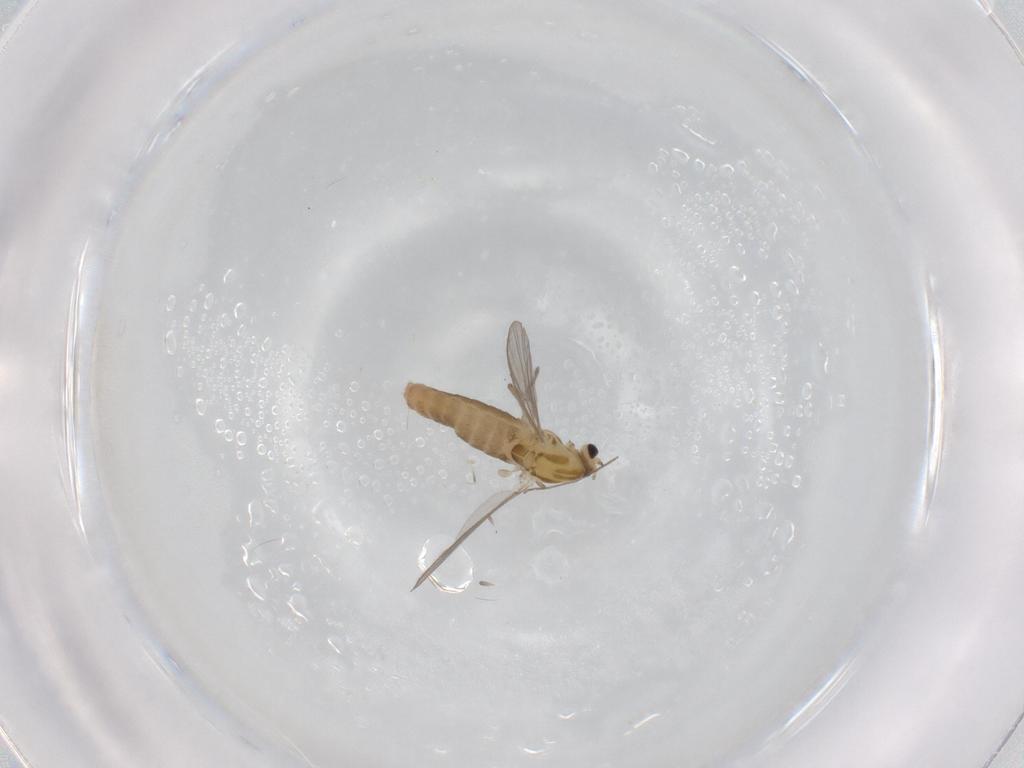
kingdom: Animalia
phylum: Arthropoda
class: Insecta
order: Diptera
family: Chironomidae
